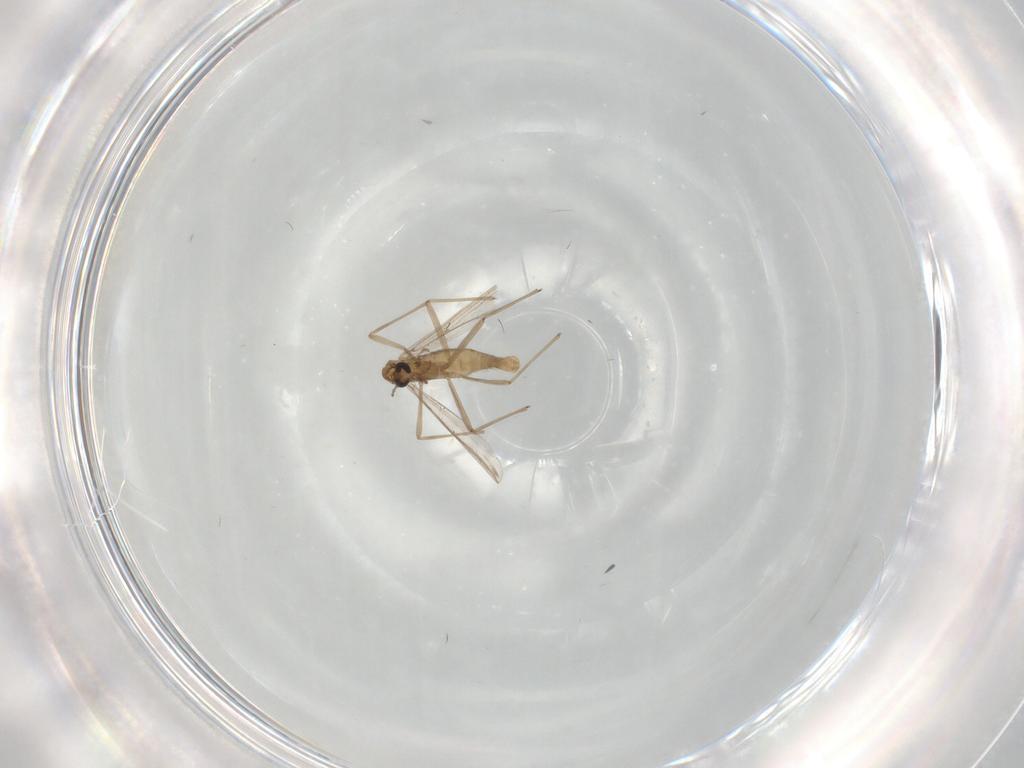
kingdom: Animalia
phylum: Arthropoda
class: Insecta
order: Diptera
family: Chironomidae
